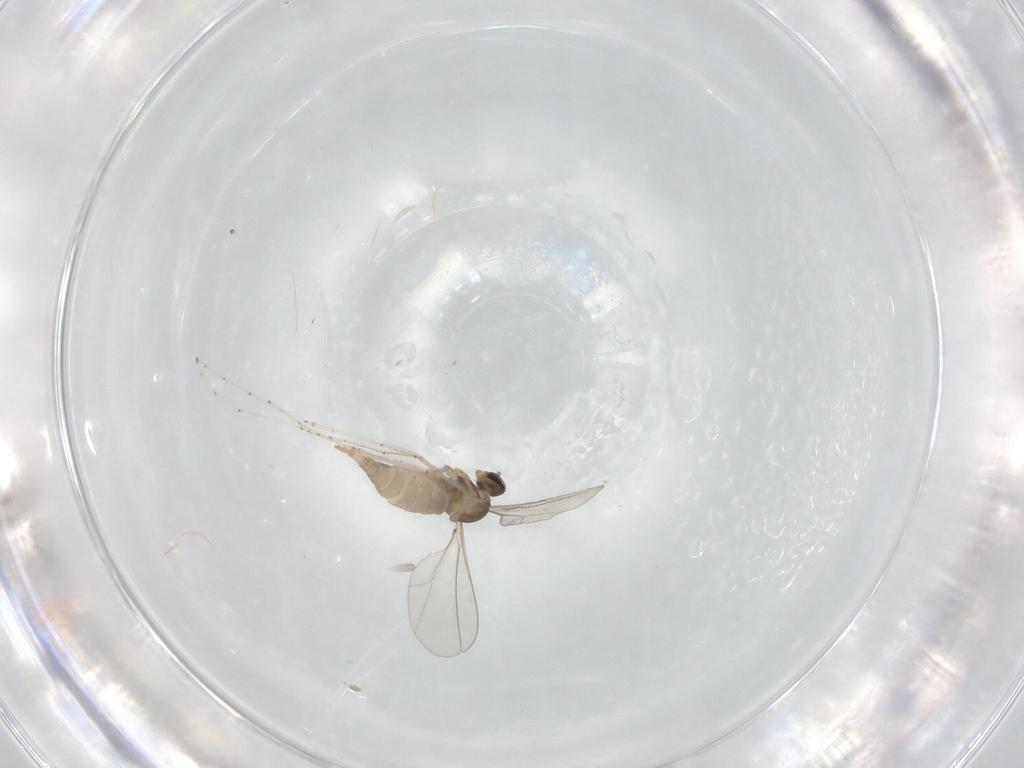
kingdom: Animalia
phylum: Arthropoda
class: Insecta
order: Diptera
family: Cecidomyiidae
